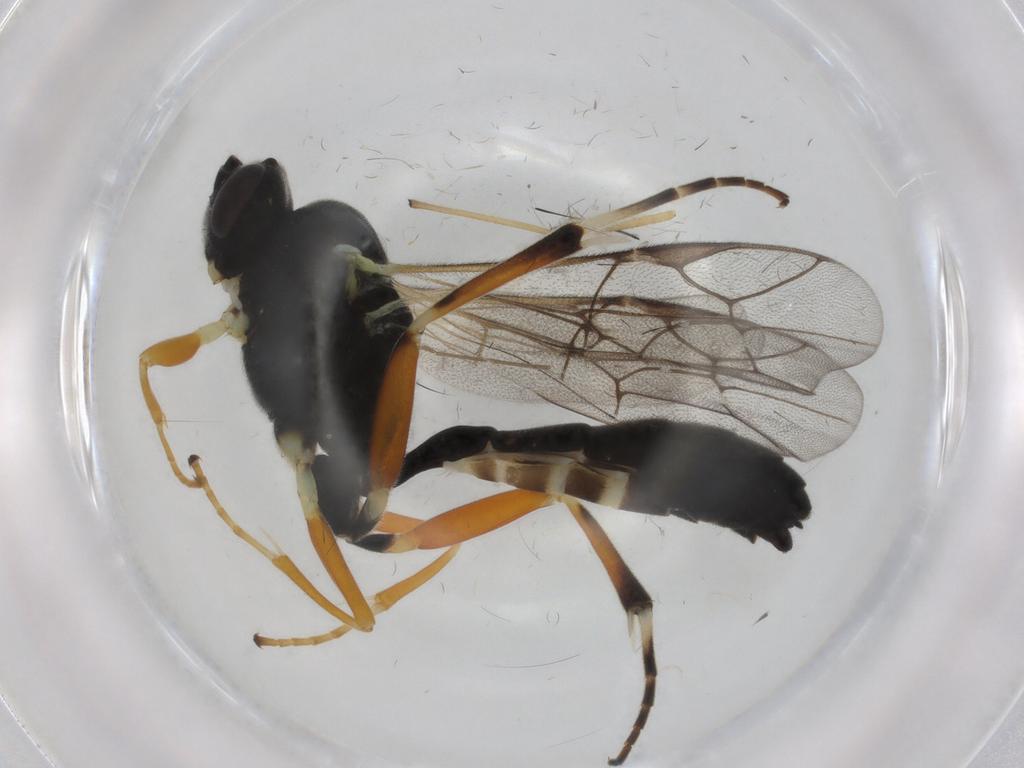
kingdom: Animalia
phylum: Arthropoda
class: Insecta
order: Hymenoptera
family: Ichneumonidae
